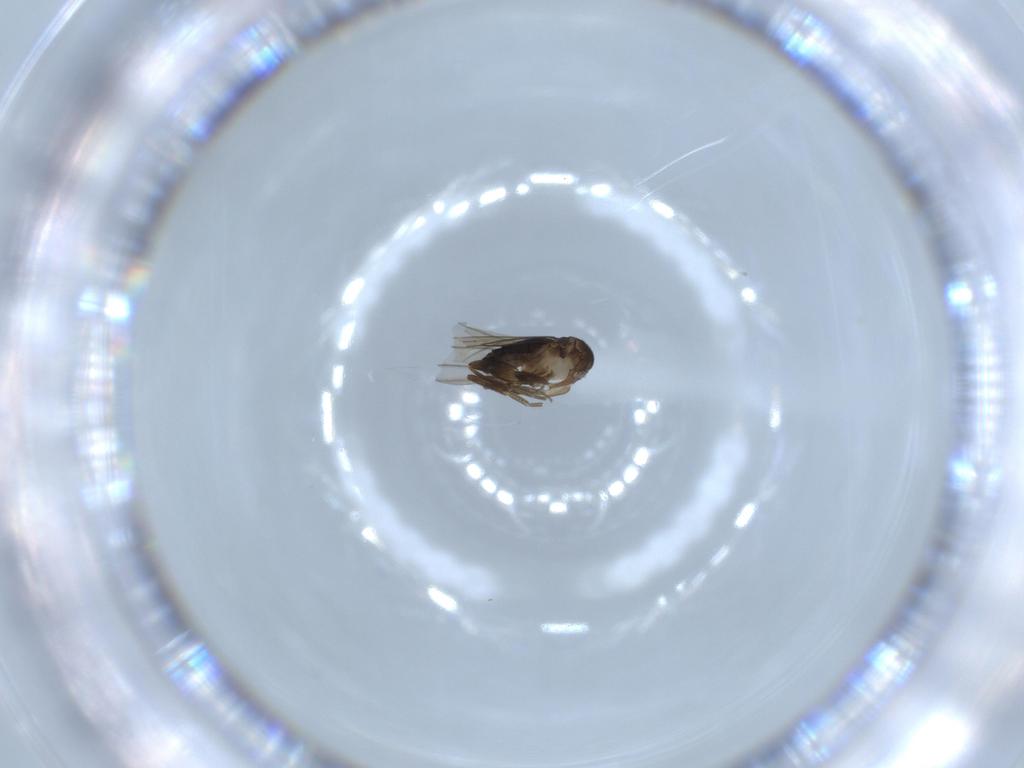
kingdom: Animalia
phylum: Arthropoda
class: Insecta
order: Diptera
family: Phoridae
